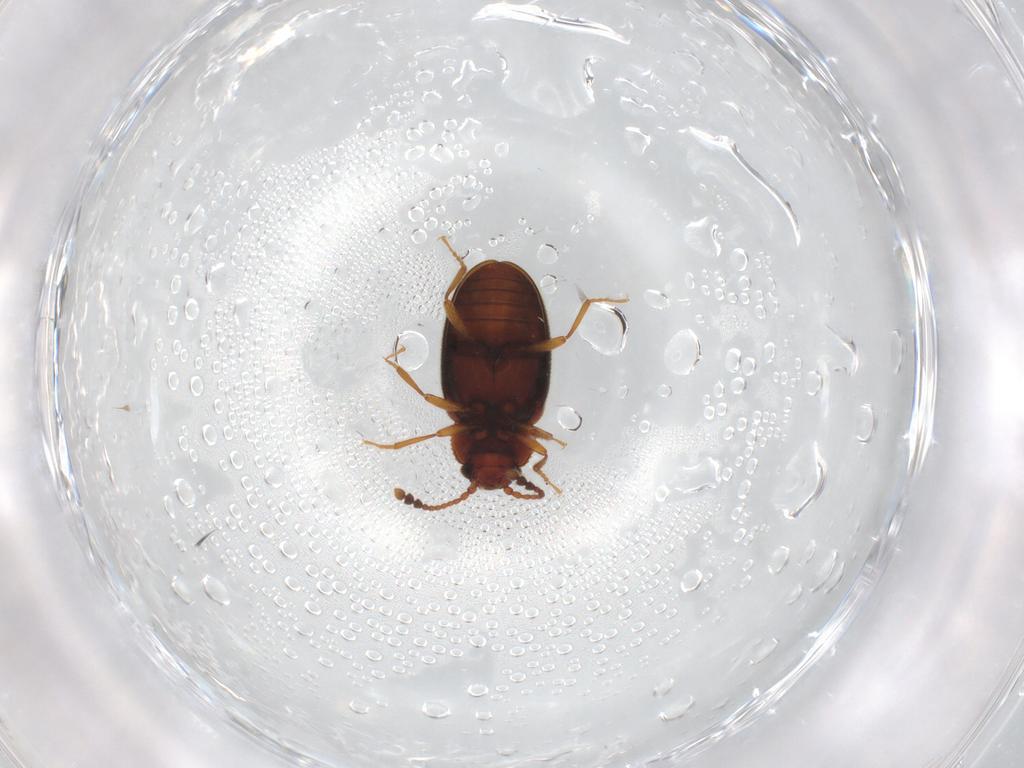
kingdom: Animalia
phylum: Arthropoda
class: Insecta
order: Coleoptera
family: Cryptophagidae
